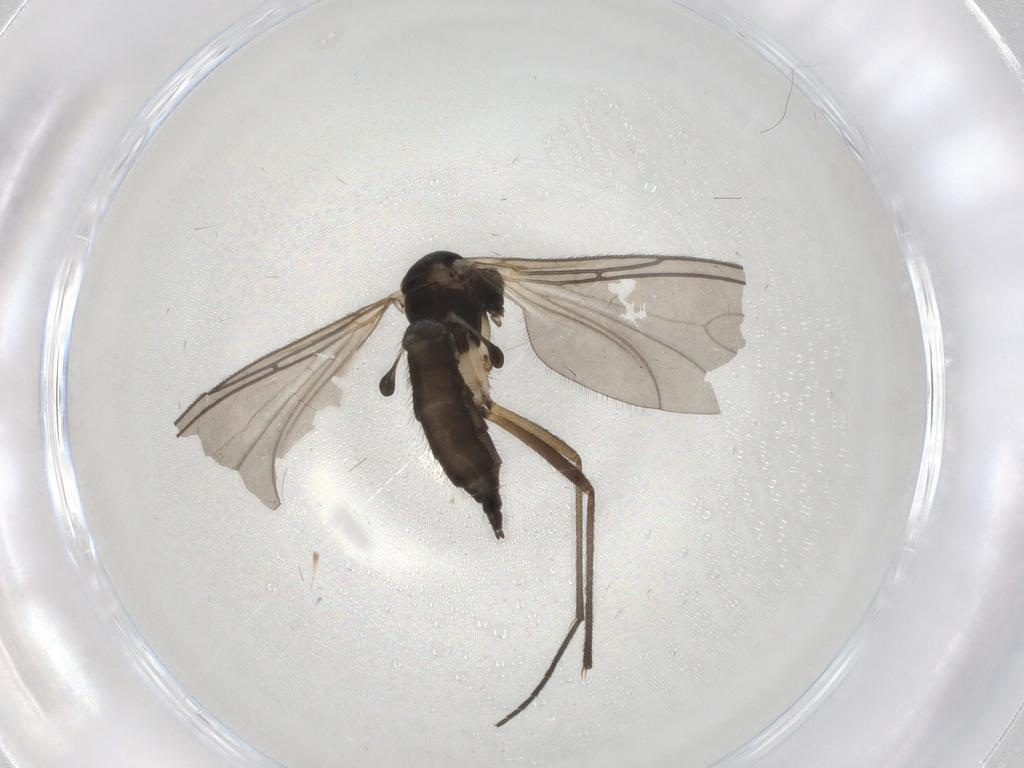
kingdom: Animalia
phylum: Arthropoda
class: Insecta
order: Diptera
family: Sciaridae
